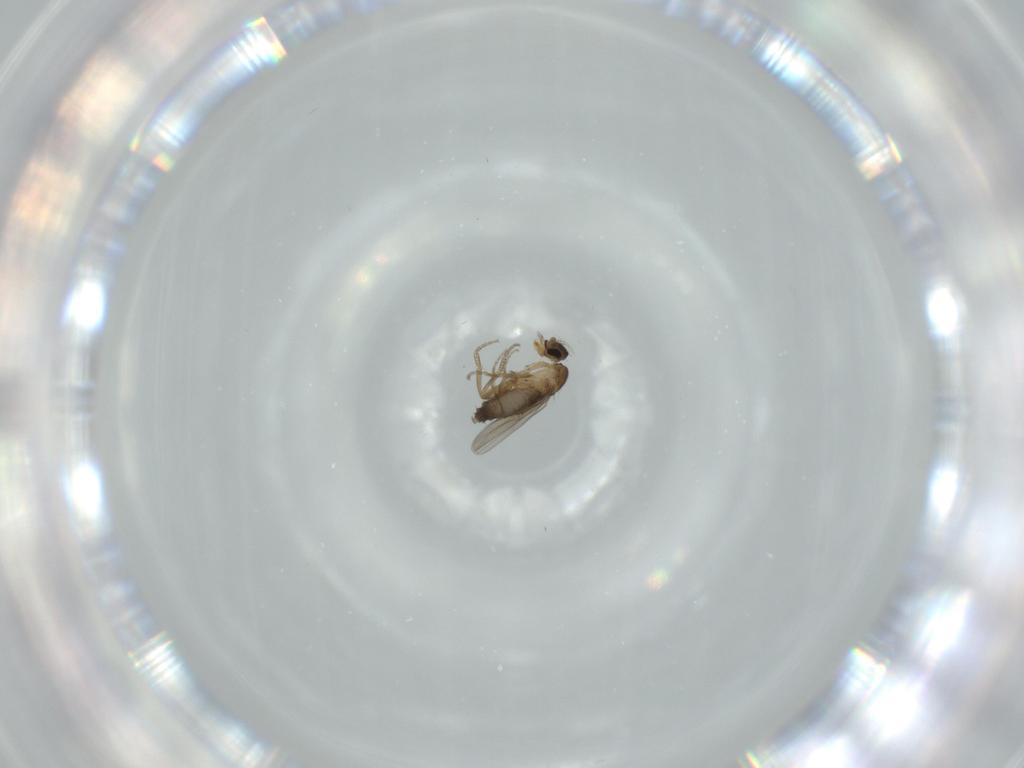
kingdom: Animalia
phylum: Arthropoda
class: Insecta
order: Diptera
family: Phoridae
